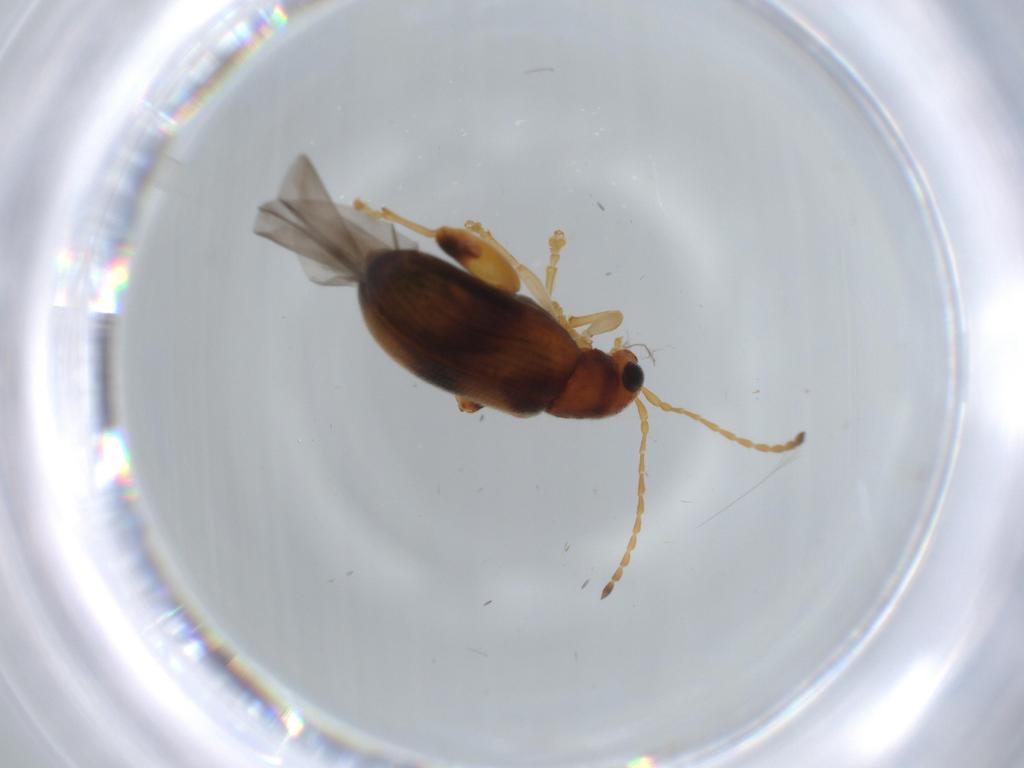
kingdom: Animalia
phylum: Arthropoda
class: Insecta
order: Coleoptera
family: Chrysomelidae
